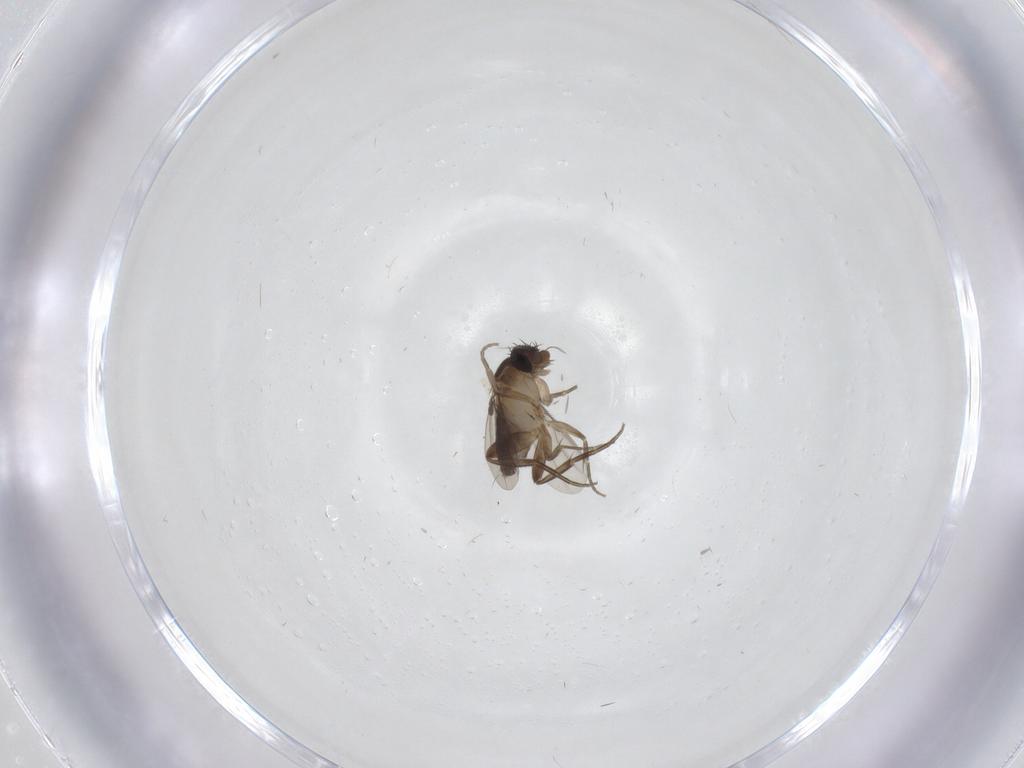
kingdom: Animalia
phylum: Arthropoda
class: Insecta
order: Diptera
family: Phoridae
